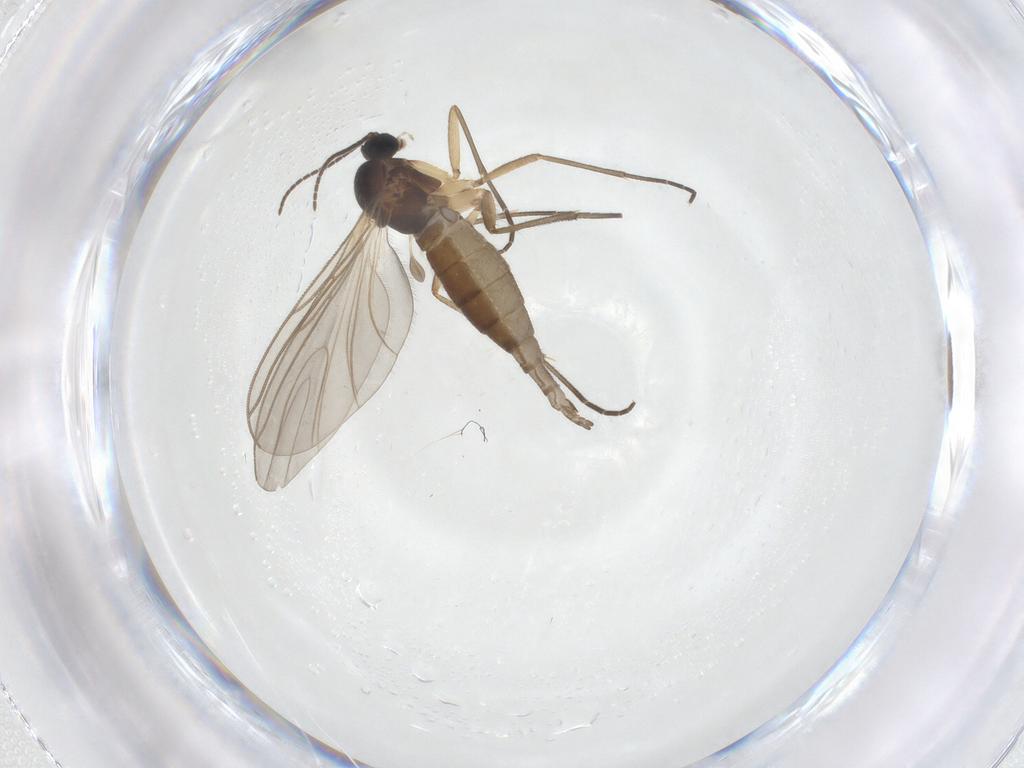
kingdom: Animalia
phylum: Arthropoda
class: Insecta
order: Diptera
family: Sciaridae
